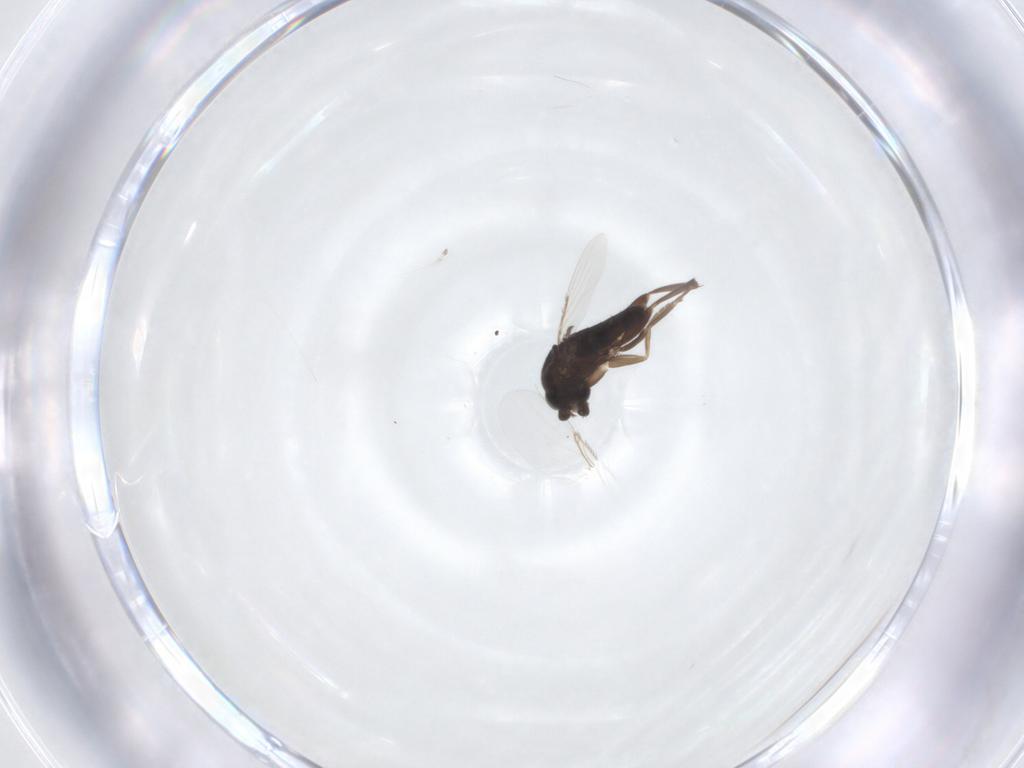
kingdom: Animalia
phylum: Arthropoda
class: Insecta
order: Diptera
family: Phoridae
